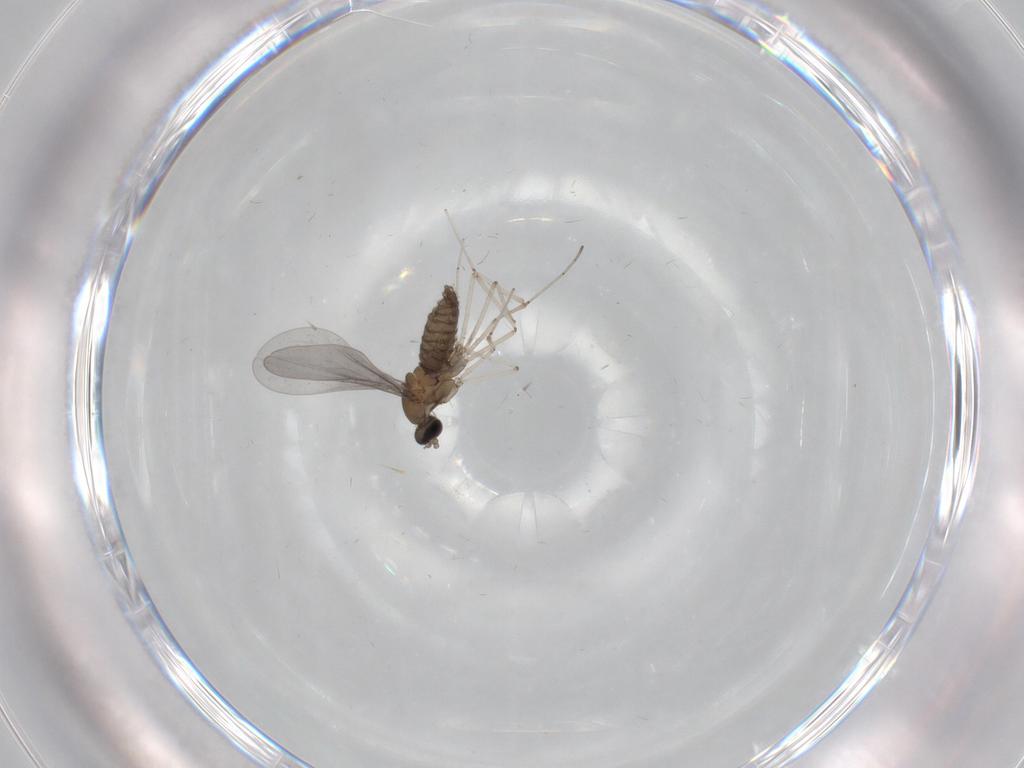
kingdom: Animalia
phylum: Arthropoda
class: Insecta
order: Diptera
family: Cecidomyiidae
